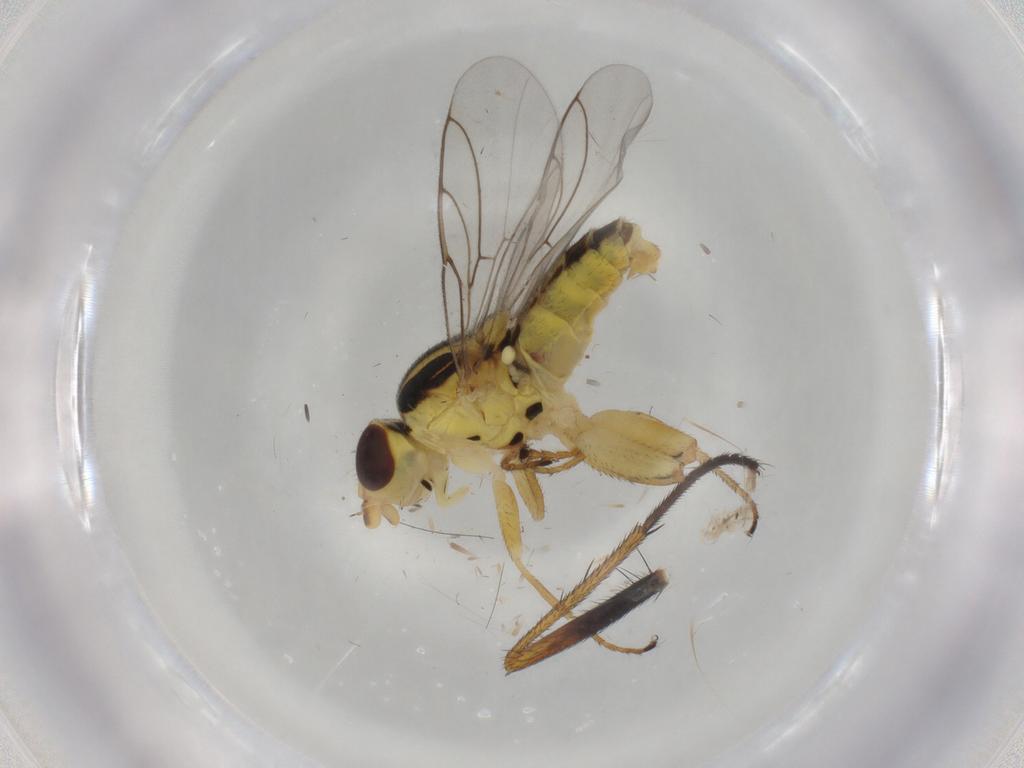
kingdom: Animalia
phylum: Arthropoda
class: Insecta
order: Diptera
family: Chloropidae
